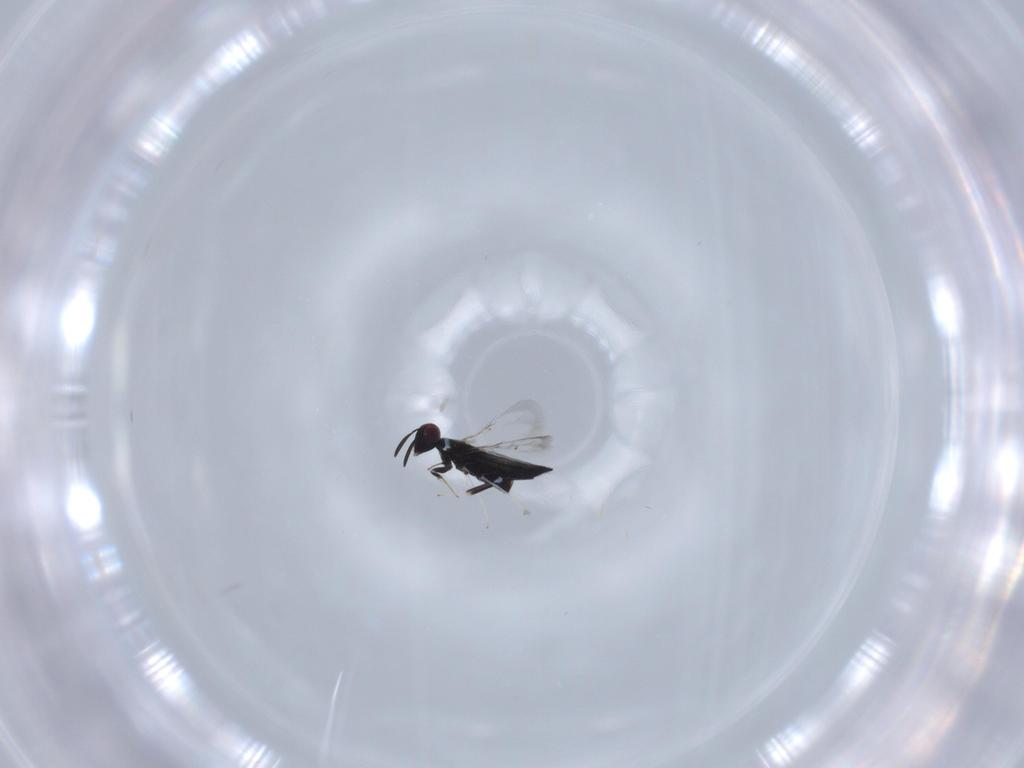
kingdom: Animalia
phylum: Arthropoda
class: Insecta
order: Hymenoptera
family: Signiphoridae
